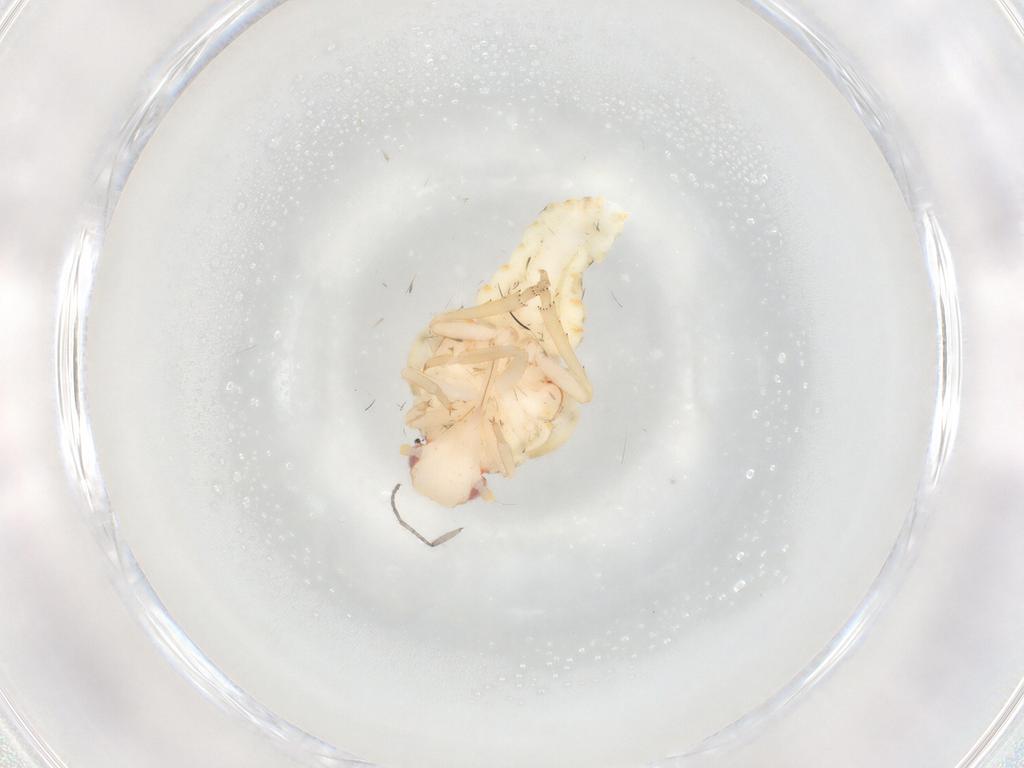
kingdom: Animalia
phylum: Arthropoda
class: Insecta
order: Hemiptera
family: Flatidae
